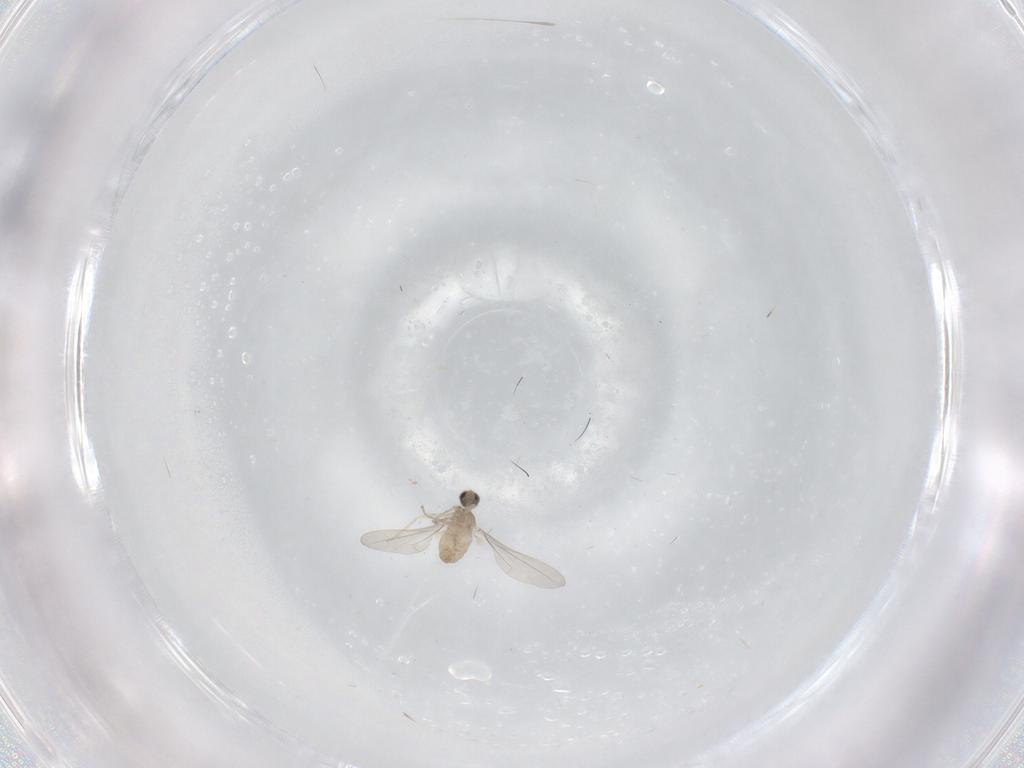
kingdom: Animalia
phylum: Arthropoda
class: Insecta
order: Diptera
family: Cecidomyiidae
